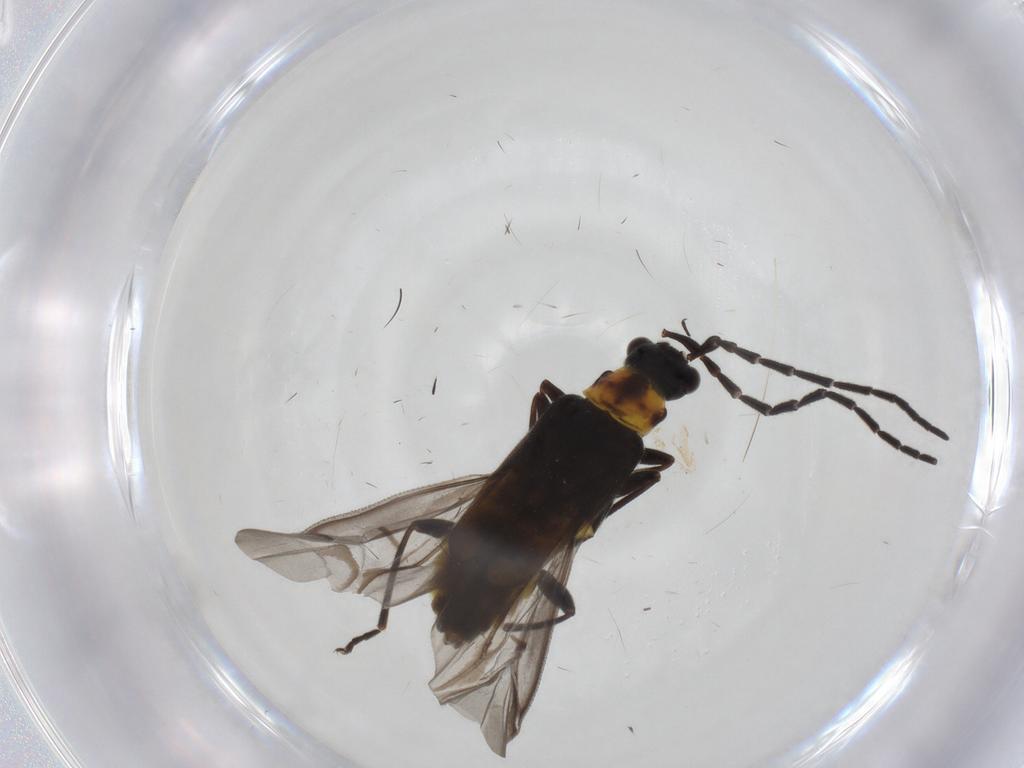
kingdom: Animalia
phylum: Arthropoda
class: Insecta
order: Coleoptera
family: Cantharidae
